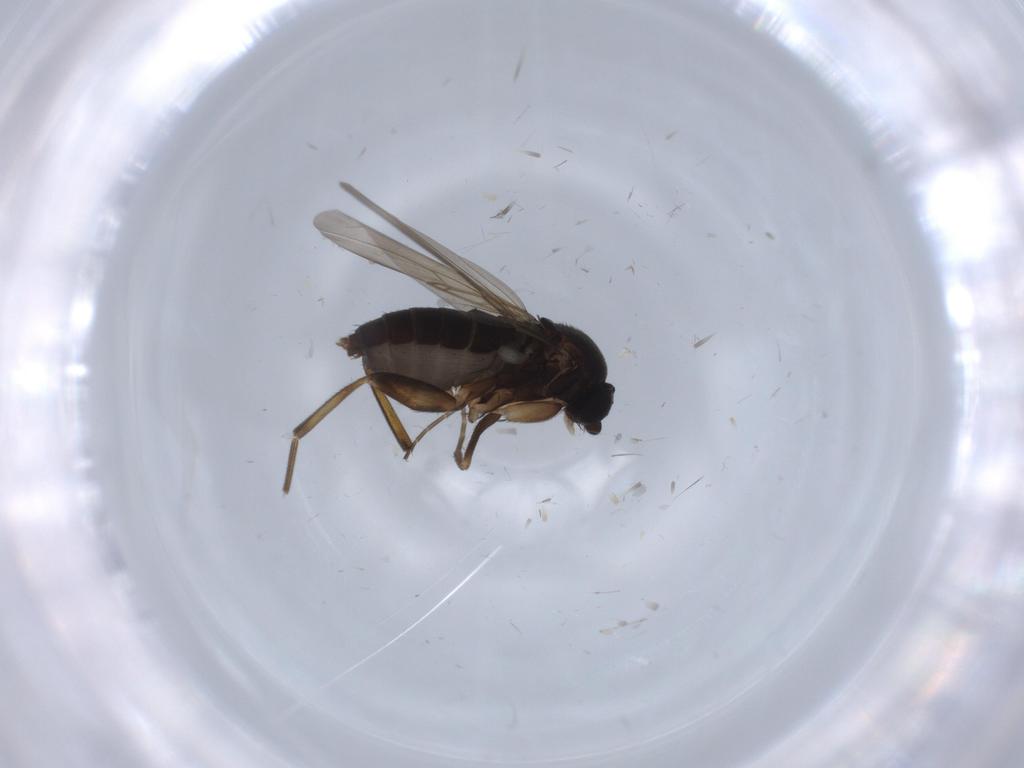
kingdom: Animalia
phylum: Arthropoda
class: Insecta
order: Diptera
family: Phoridae
